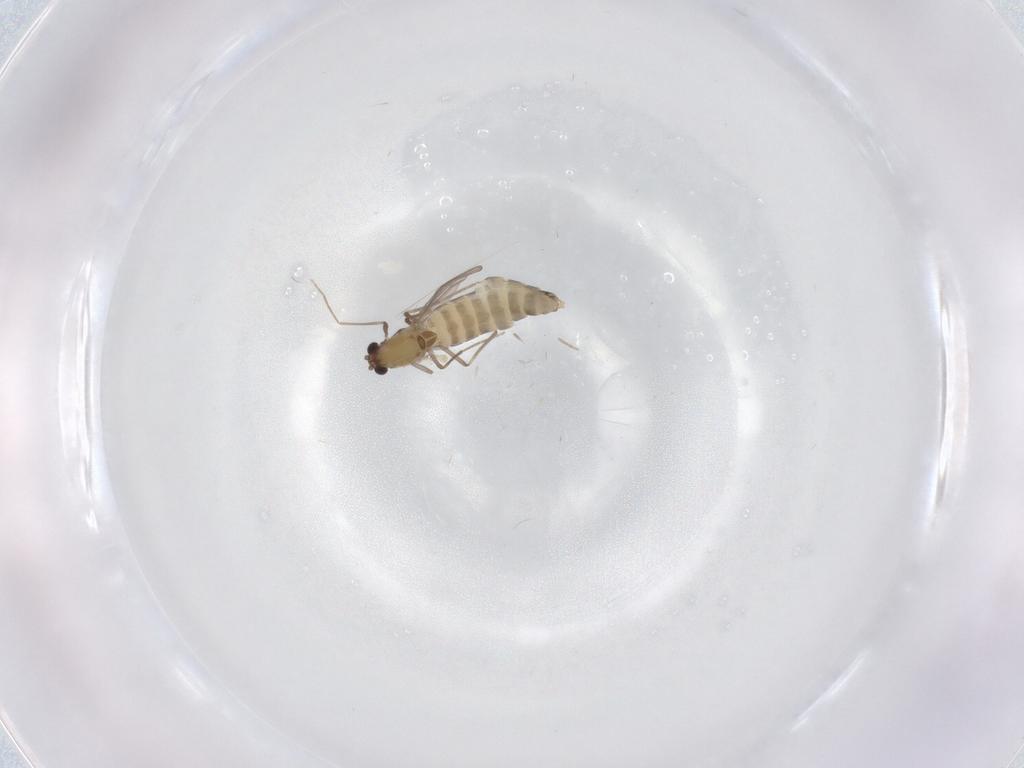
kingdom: Animalia
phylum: Arthropoda
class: Insecta
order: Diptera
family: Chironomidae
